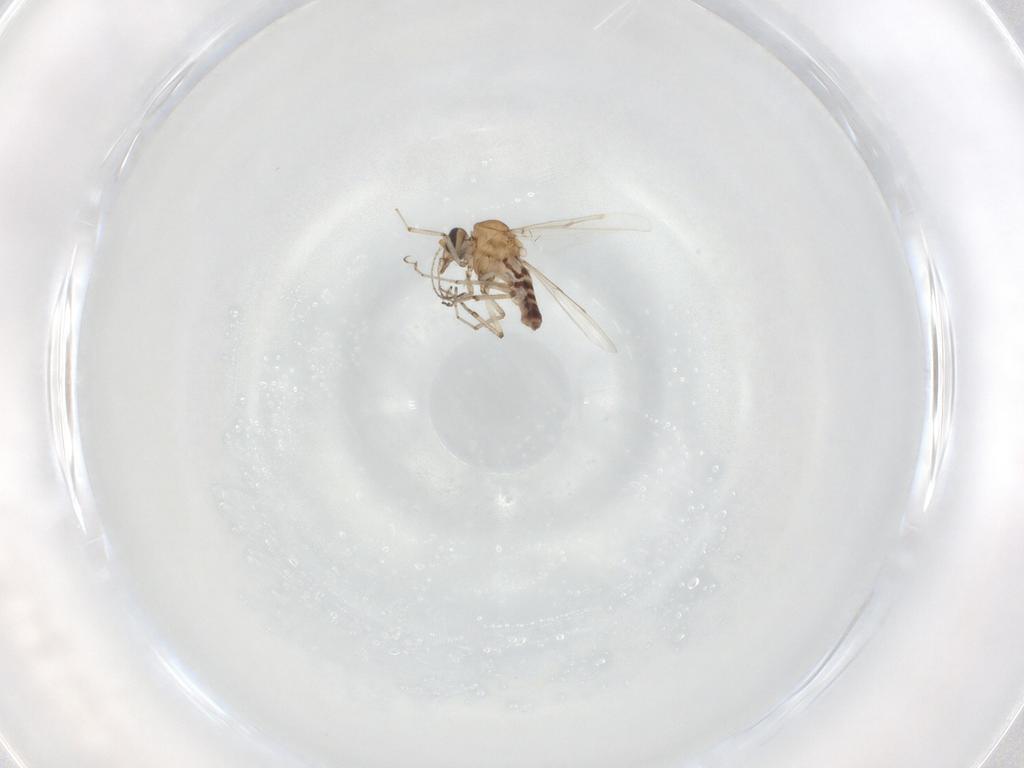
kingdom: Animalia
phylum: Arthropoda
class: Insecta
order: Diptera
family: Phoridae
